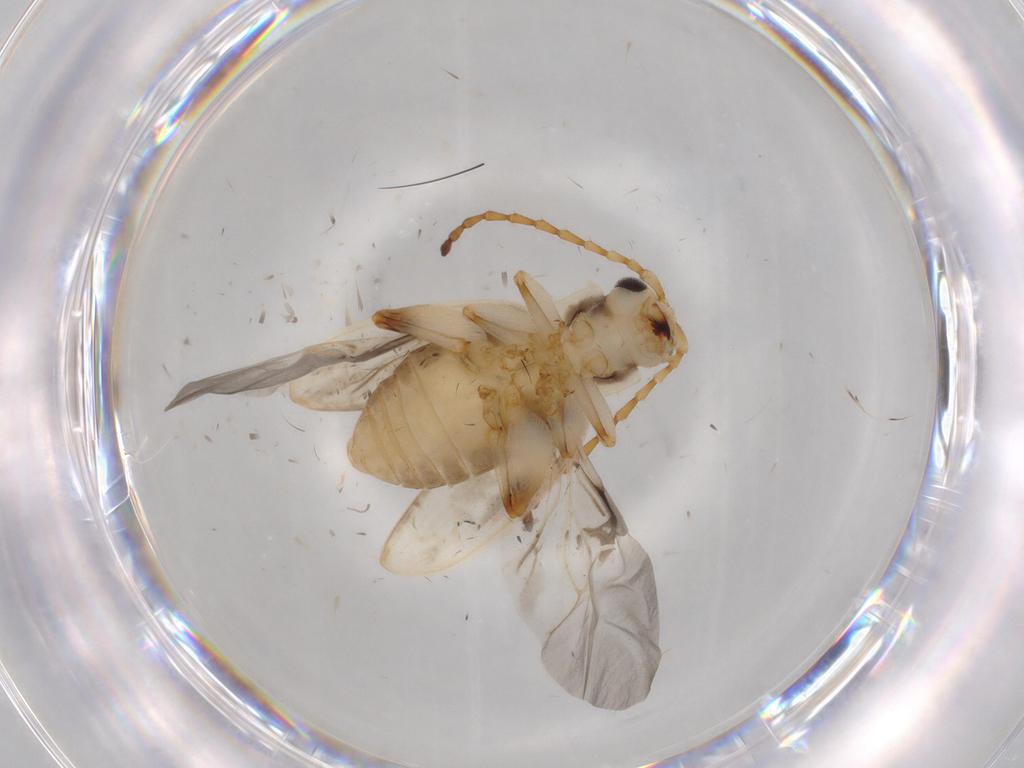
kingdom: Animalia
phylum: Arthropoda
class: Insecta
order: Coleoptera
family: Chrysomelidae
